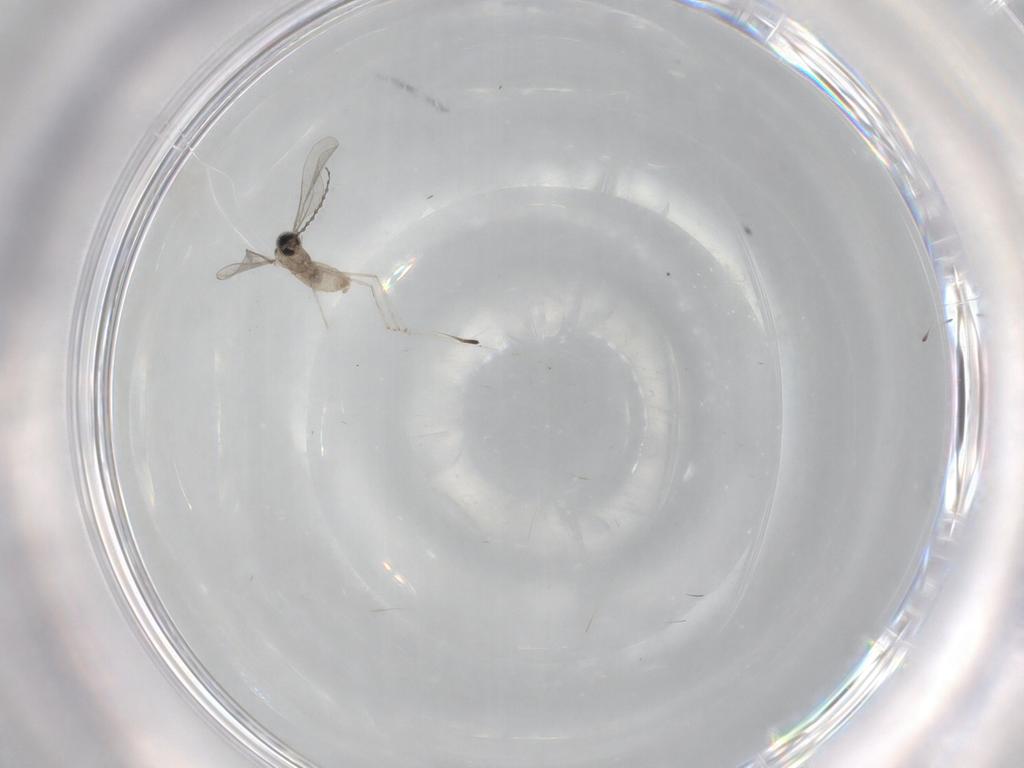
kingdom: Animalia
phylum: Arthropoda
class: Insecta
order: Diptera
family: Cecidomyiidae
